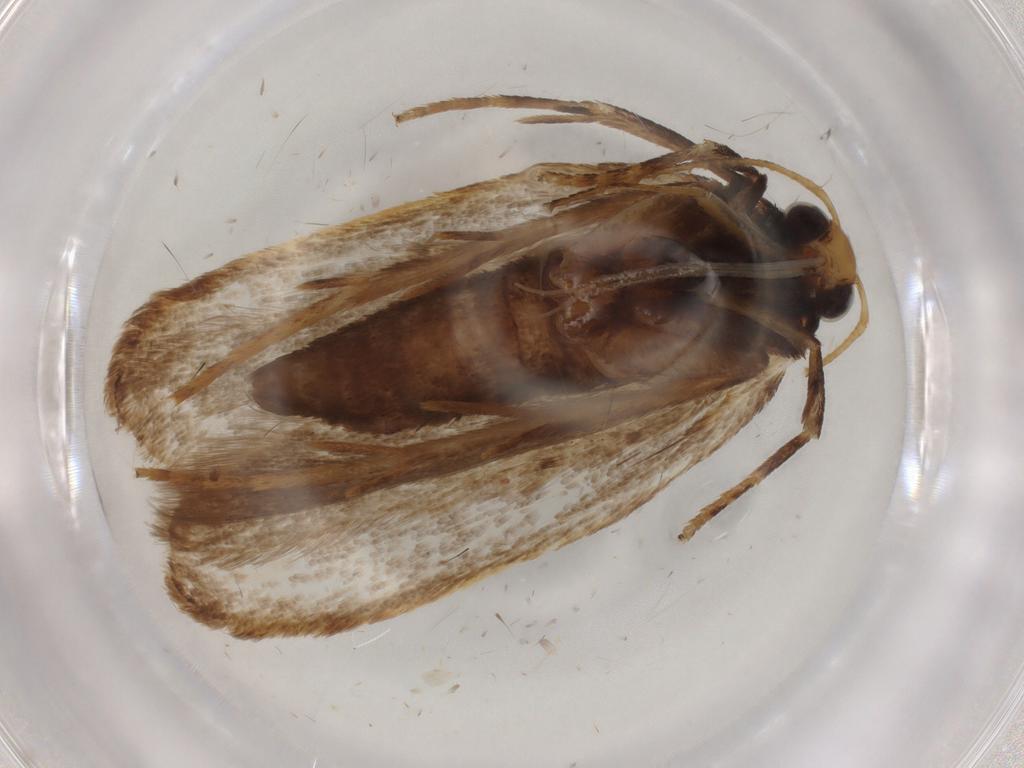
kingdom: Animalia
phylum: Arthropoda
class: Insecta
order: Lepidoptera
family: Noctuidae
